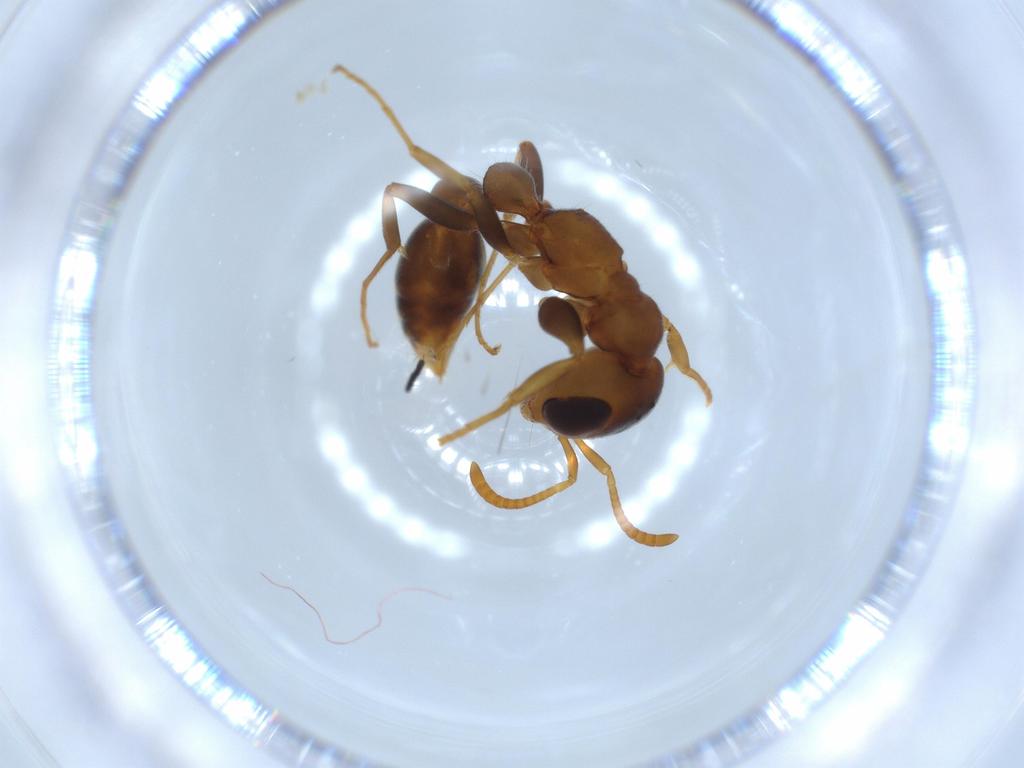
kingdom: Animalia
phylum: Arthropoda
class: Insecta
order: Hymenoptera
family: Formicidae
